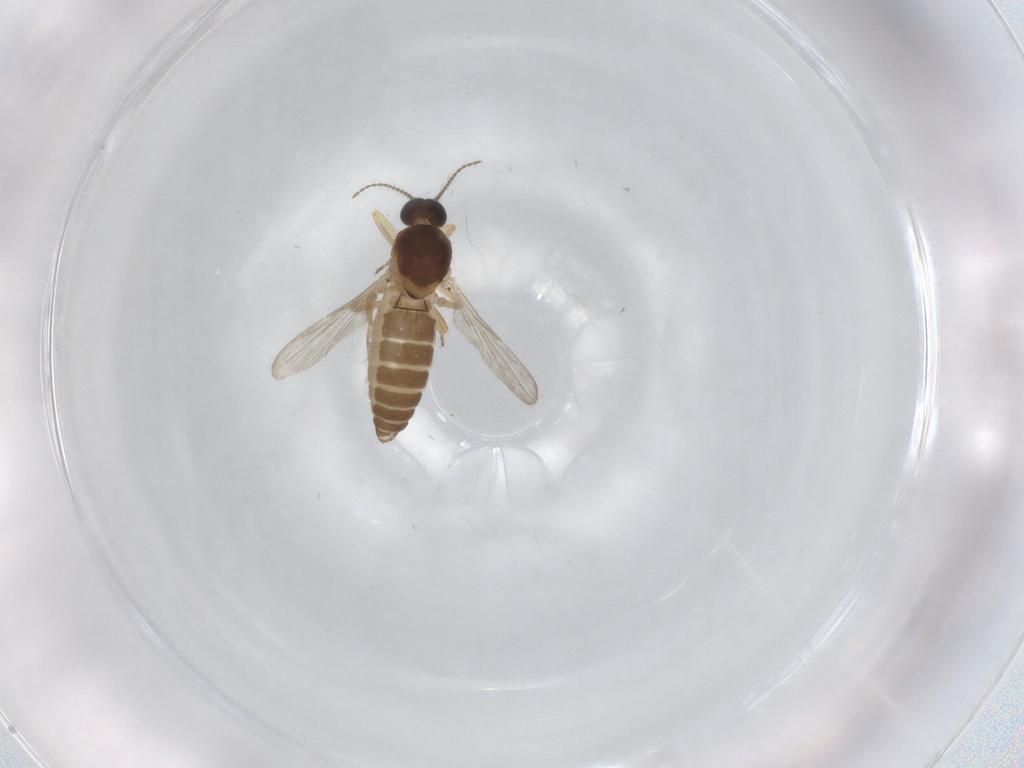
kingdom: Animalia
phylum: Arthropoda
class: Insecta
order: Diptera
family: Ceratopogonidae
